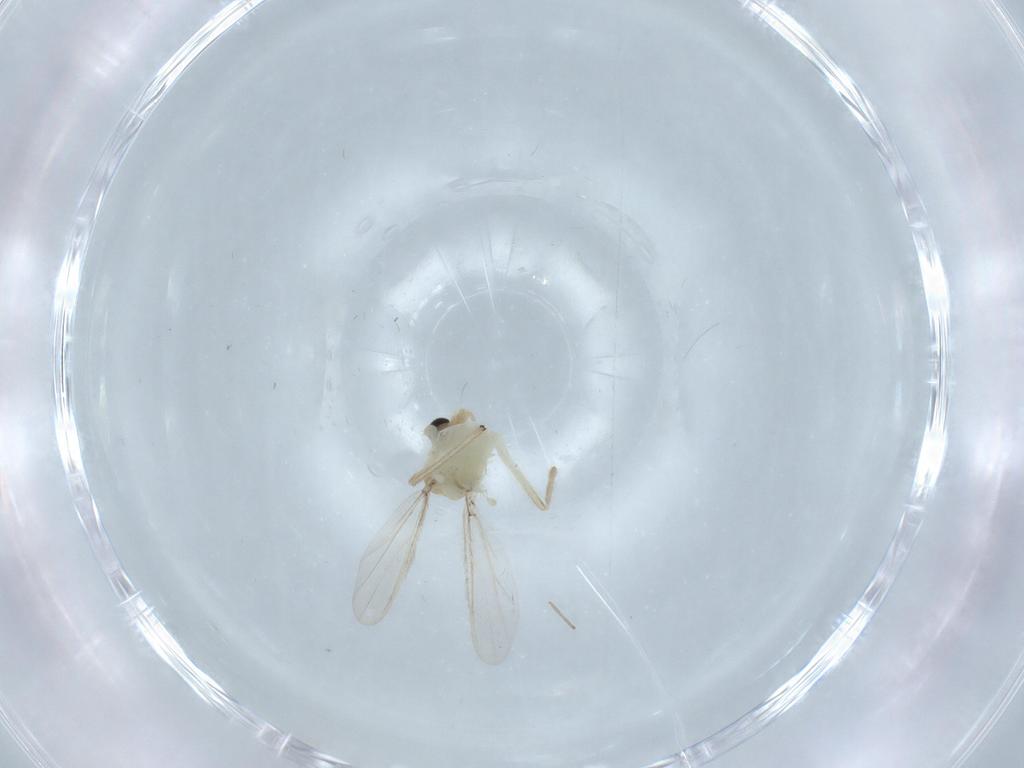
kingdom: Animalia
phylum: Arthropoda
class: Insecta
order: Diptera
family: Chironomidae
